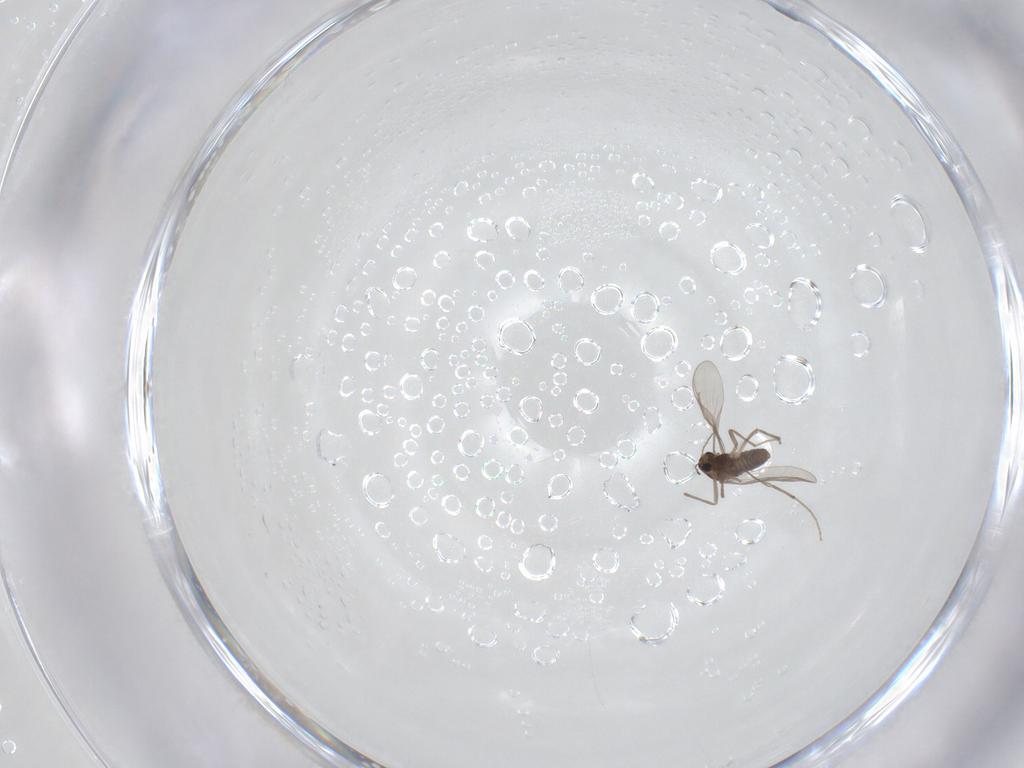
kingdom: Animalia
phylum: Arthropoda
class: Insecta
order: Diptera
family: Chironomidae
